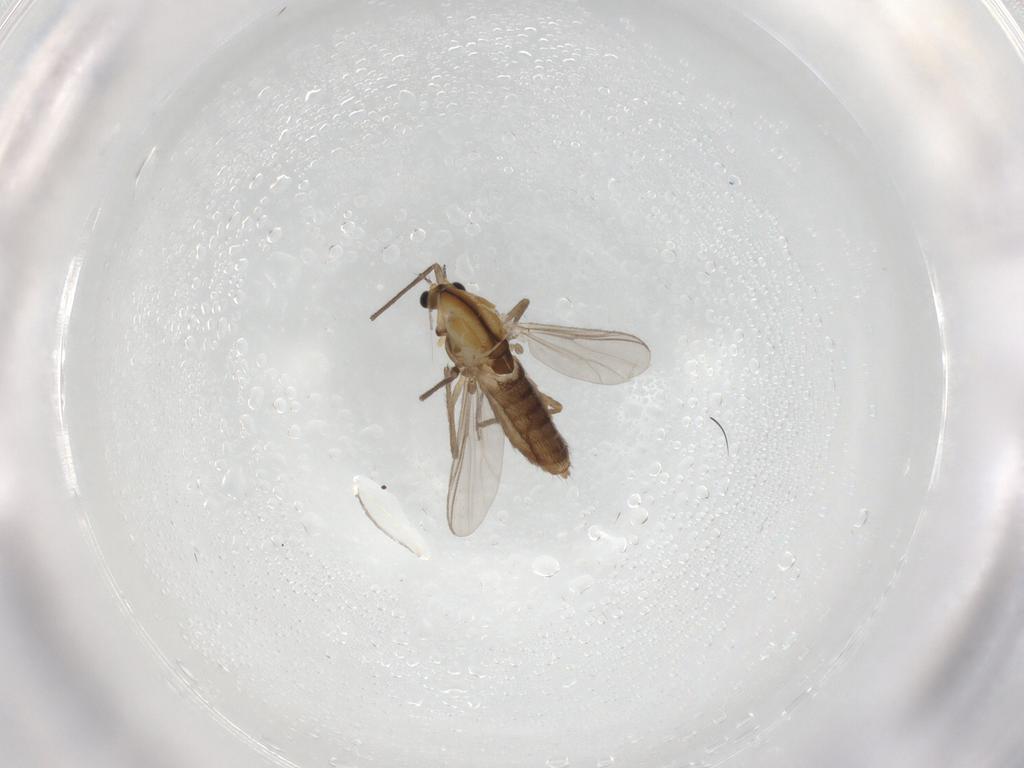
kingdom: Animalia
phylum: Arthropoda
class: Insecta
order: Diptera
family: Chironomidae
